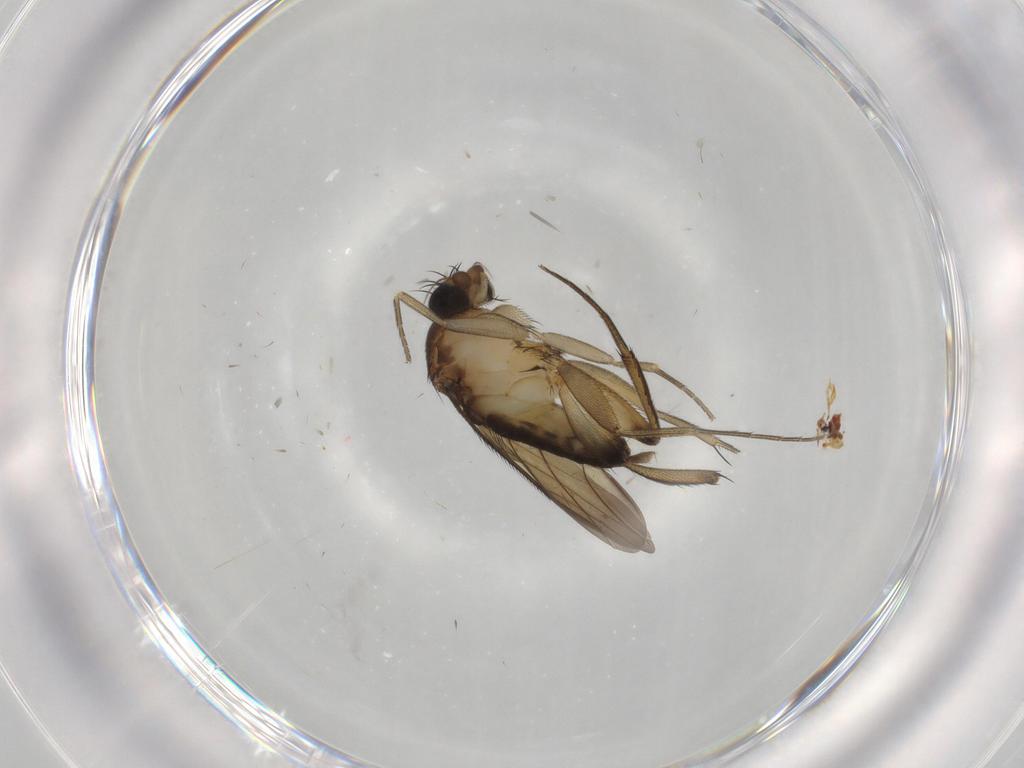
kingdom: Animalia
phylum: Arthropoda
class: Insecta
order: Diptera
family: Phoridae
